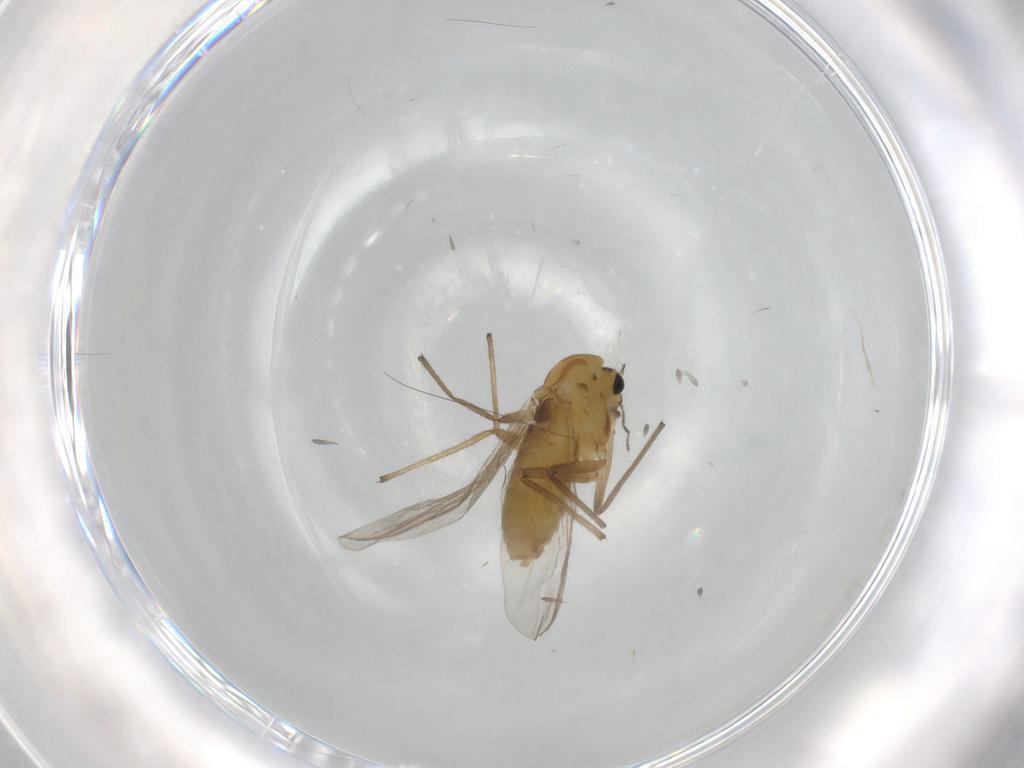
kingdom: Animalia
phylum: Arthropoda
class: Insecta
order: Diptera
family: Chironomidae
